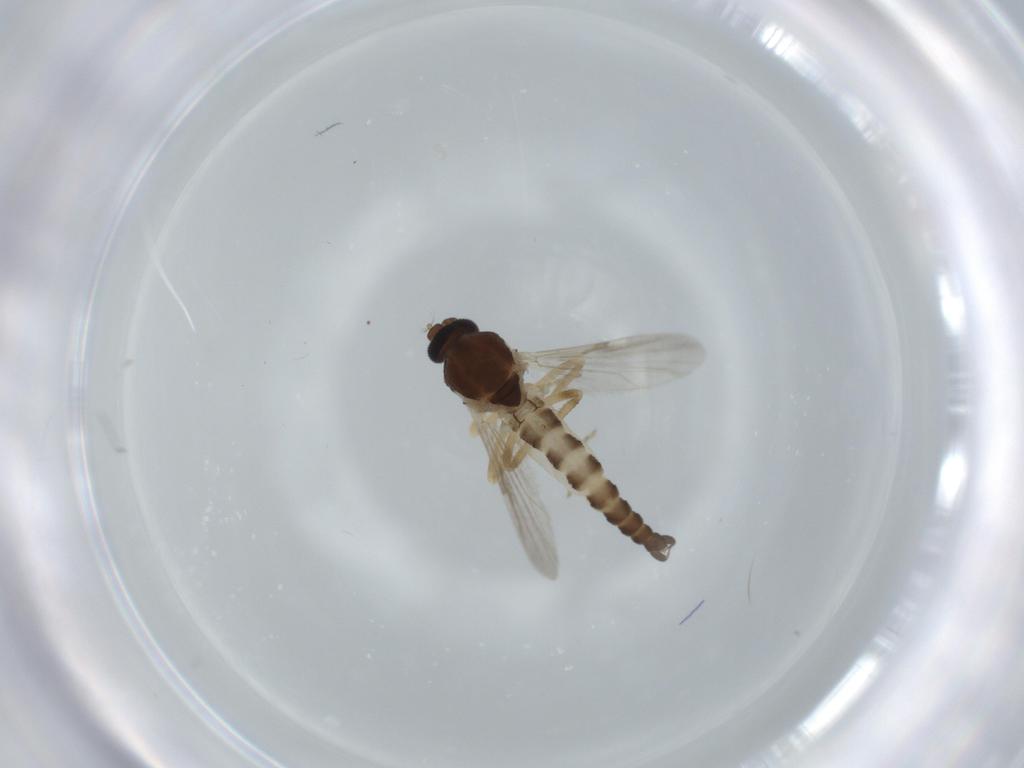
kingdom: Animalia
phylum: Arthropoda
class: Insecta
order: Diptera
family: Ceratopogonidae
